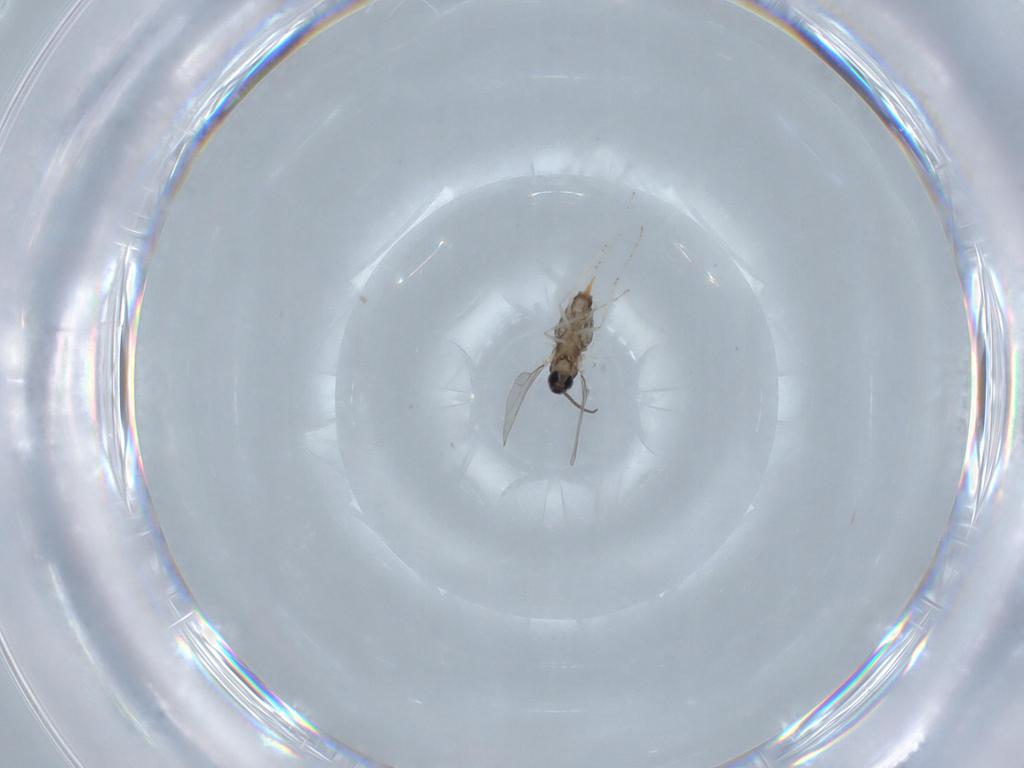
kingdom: Animalia
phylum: Arthropoda
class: Insecta
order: Diptera
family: Cecidomyiidae
